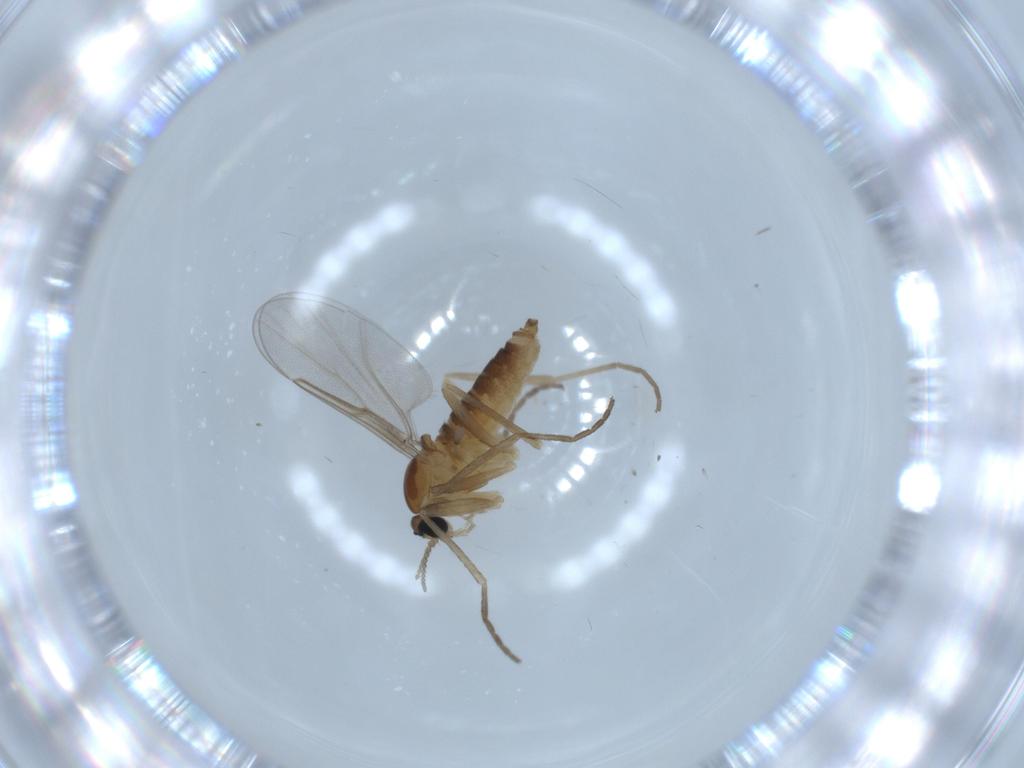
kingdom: Animalia
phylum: Arthropoda
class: Insecta
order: Diptera
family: Cecidomyiidae
